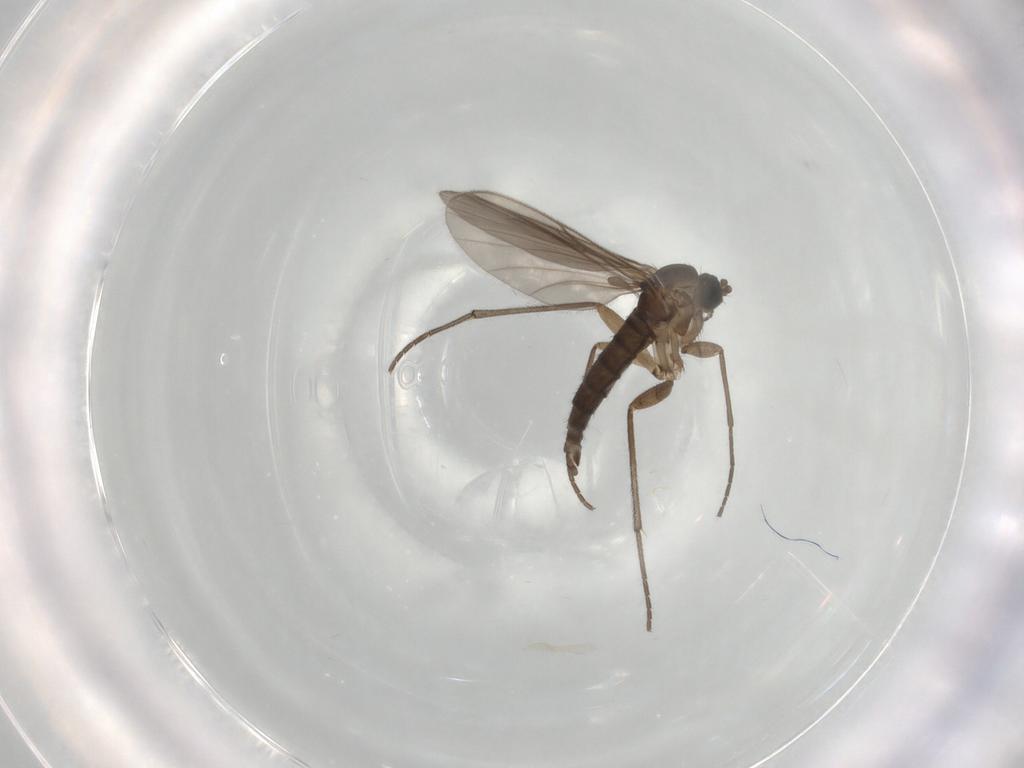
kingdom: Animalia
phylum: Arthropoda
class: Insecta
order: Diptera
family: Sciaridae
